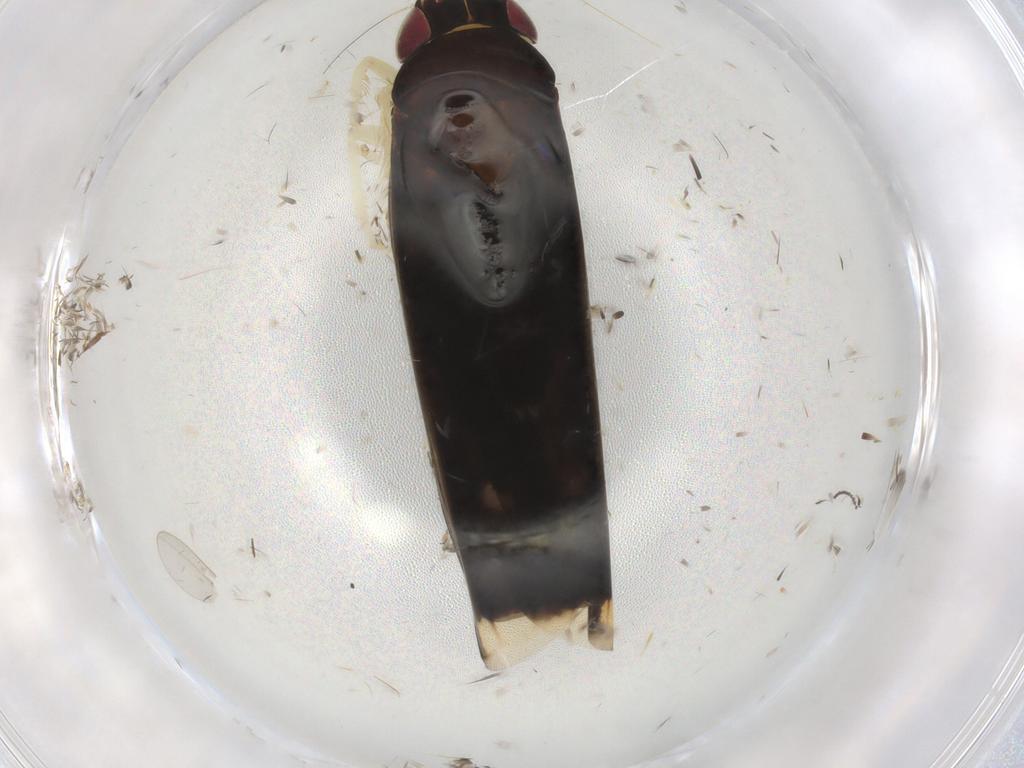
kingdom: Animalia
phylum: Arthropoda
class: Insecta
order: Hemiptera
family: Cicadellidae
